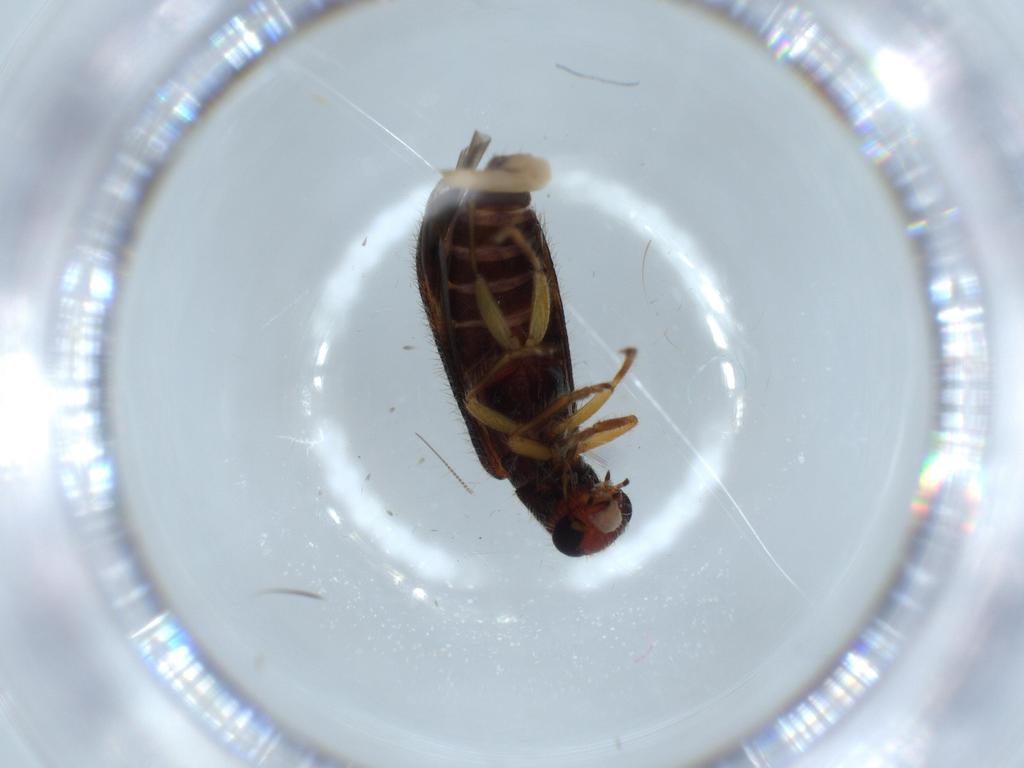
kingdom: Animalia
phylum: Arthropoda
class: Insecta
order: Coleoptera
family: Cleridae
